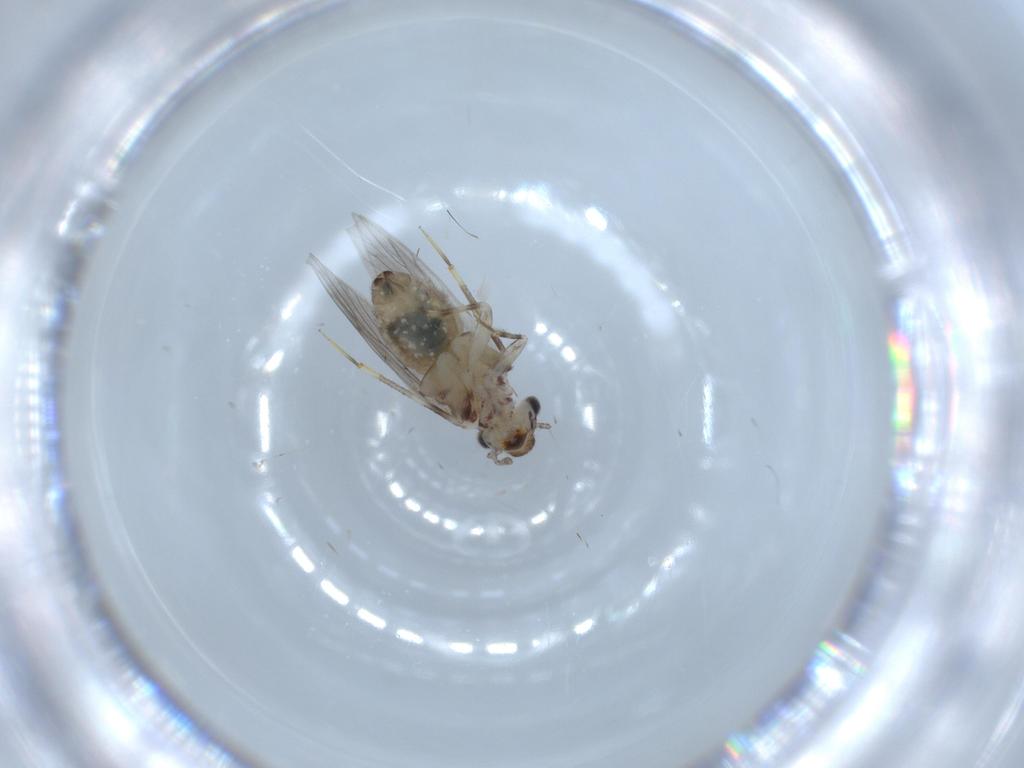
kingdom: Animalia
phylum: Arthropoda
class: Insecta
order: Psocodea
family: Lepidopsocidae
